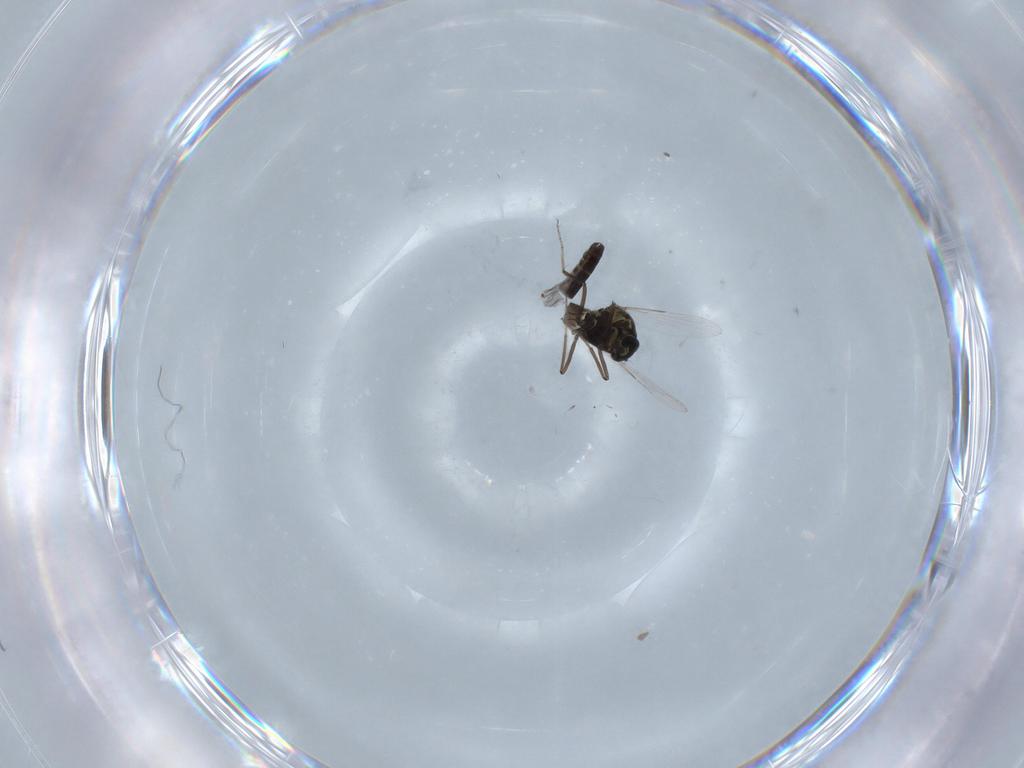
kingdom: Animalia
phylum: Arthropoda
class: Insecta
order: Diptera
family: Ceratopogonidae
